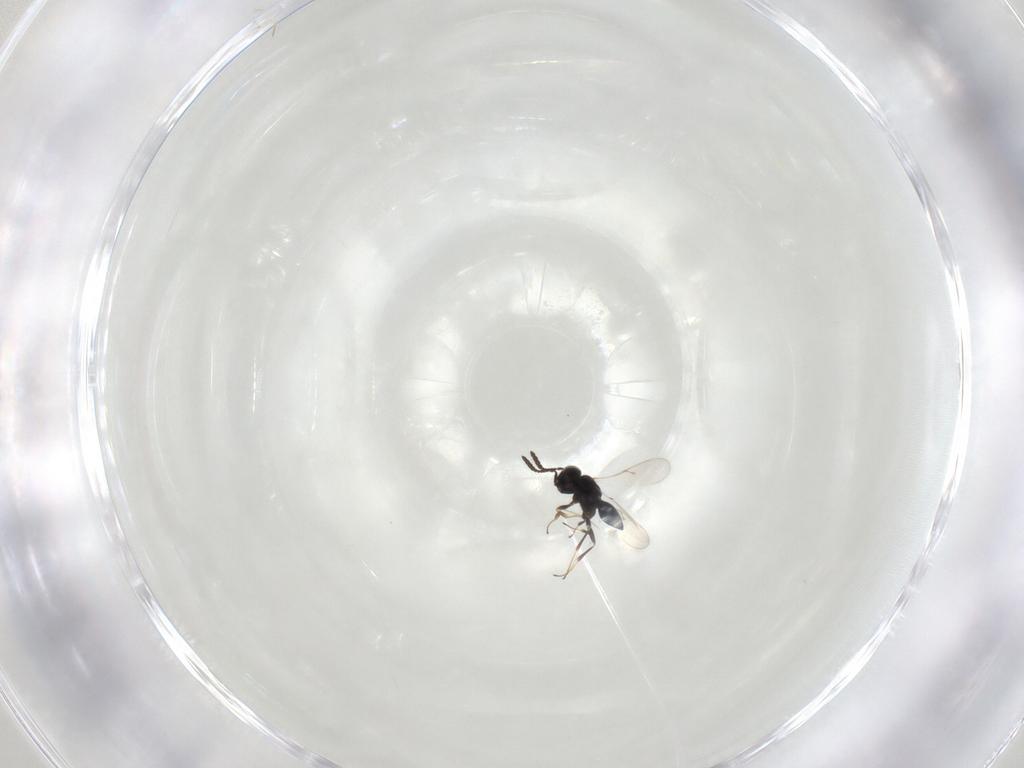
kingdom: Animalia
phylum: Arthropoda
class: Insecta
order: Hymenoptera
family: Scelionidae
